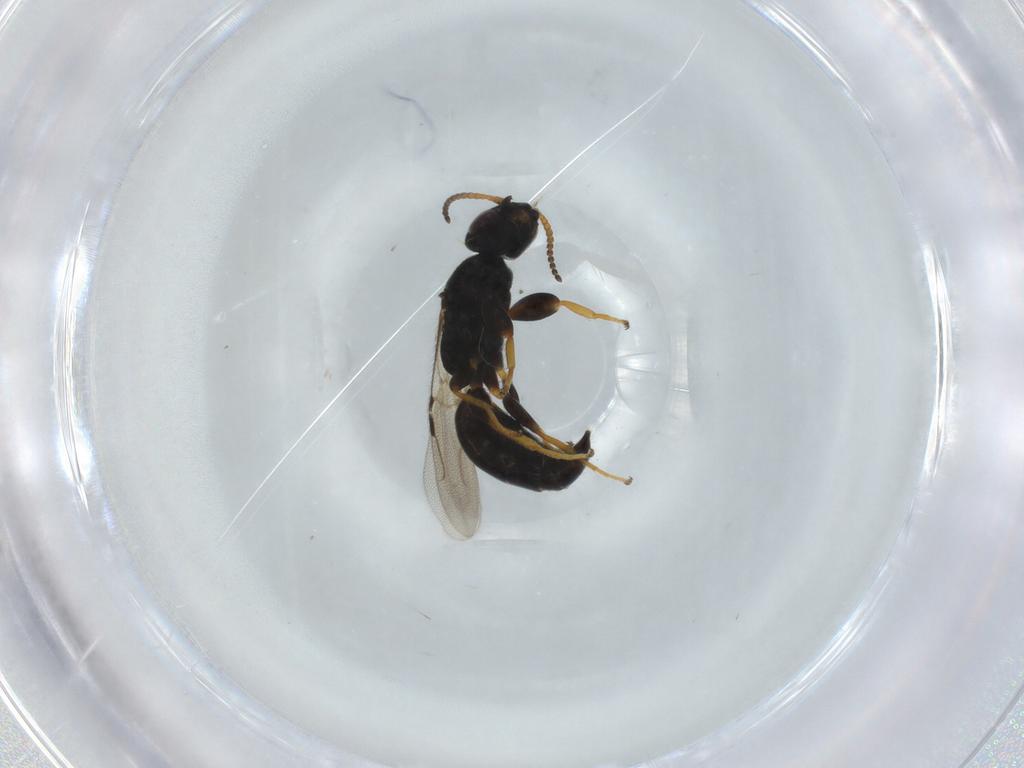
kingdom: Animalia
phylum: Arthropoda
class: Insecta
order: Hymenoptera
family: Bethylidae
